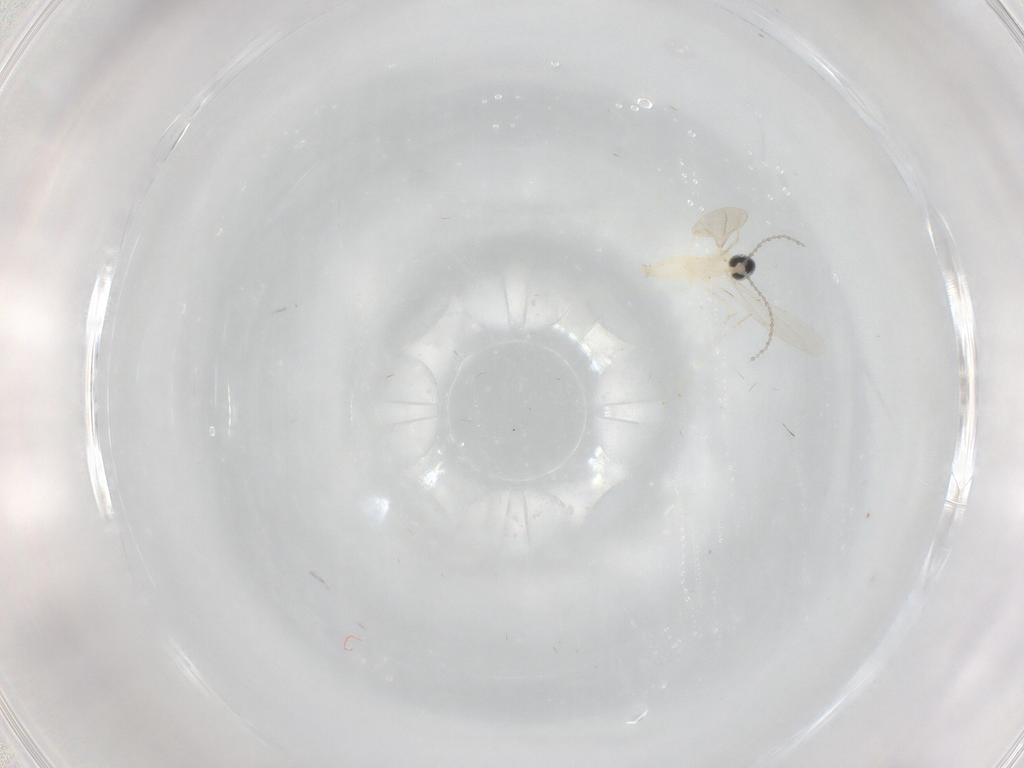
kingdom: Animalia
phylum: Arthropoda
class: Insecta
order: Diptera
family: Cecidomyiidae
